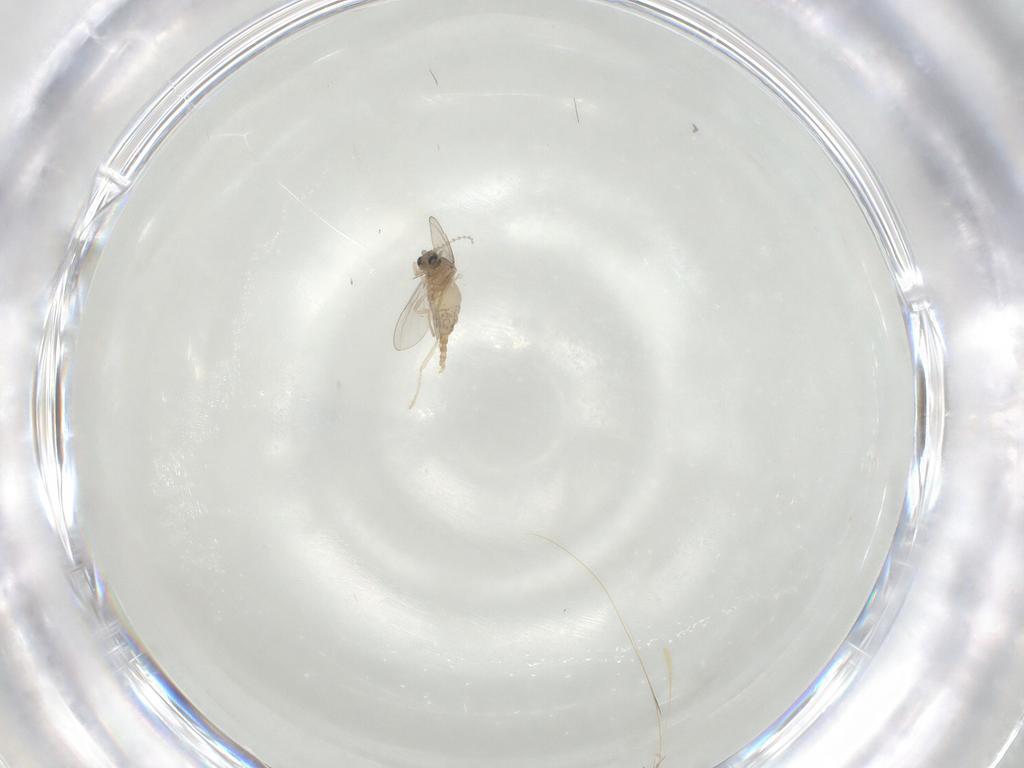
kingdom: Animalia
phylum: Arthropoda
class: Insecta
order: Diptera
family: Cecidomyiidae
